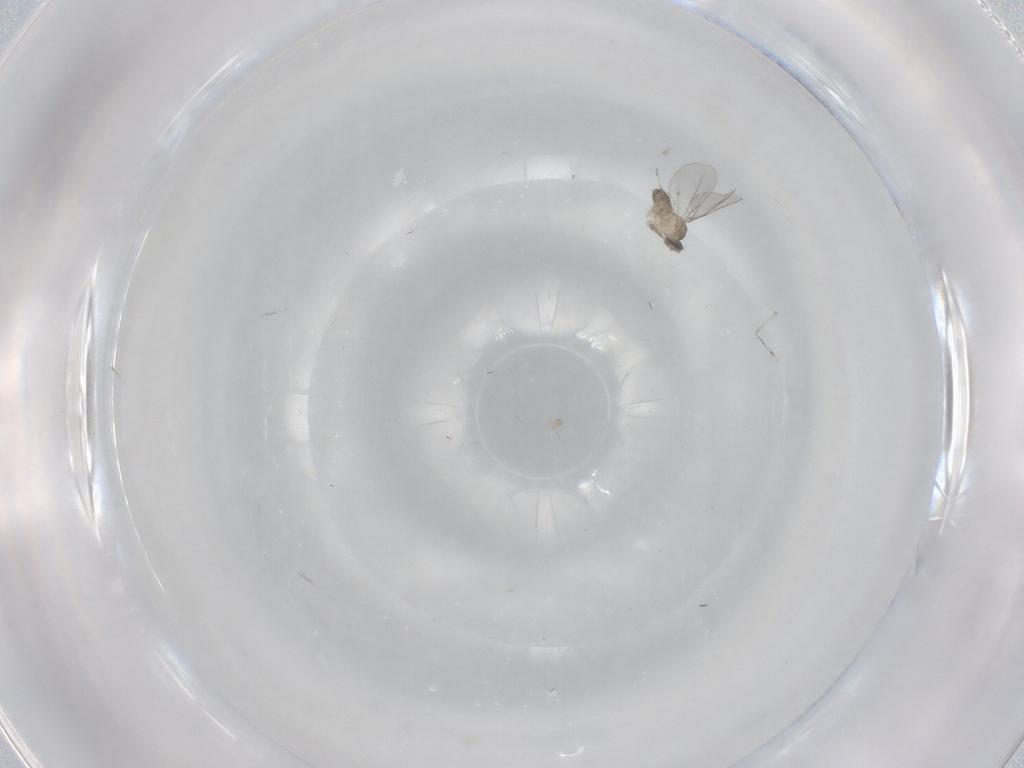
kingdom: Animalia
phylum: Arthropoda
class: Insecta
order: Diptera
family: Cecidomyiidae
